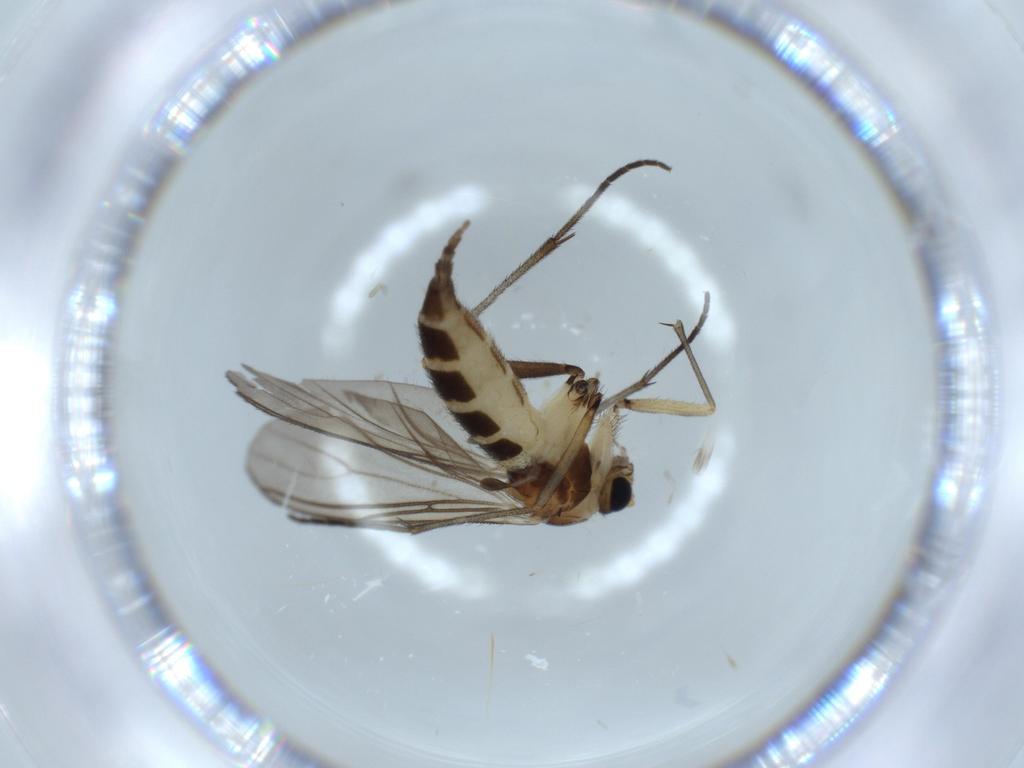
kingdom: Animalia
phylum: Arthropoda
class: Insecta
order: Diptera
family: Sciaridae
